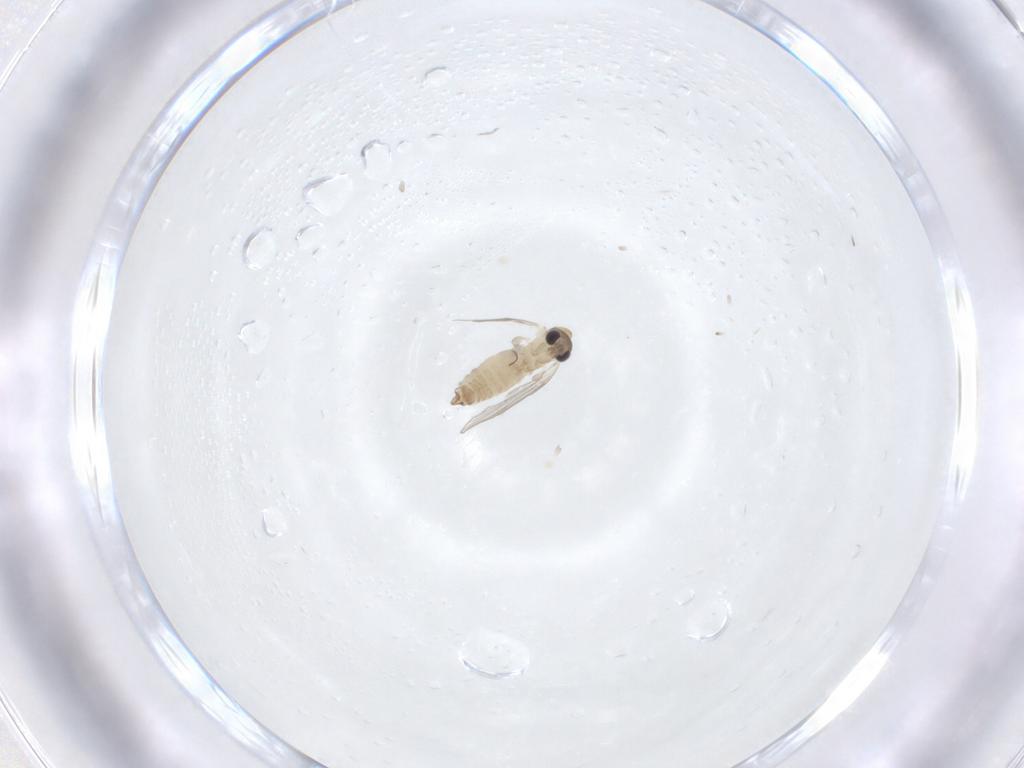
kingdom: Animalia
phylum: Arthropoda
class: Insecta
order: Diptera
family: Psychodidae
